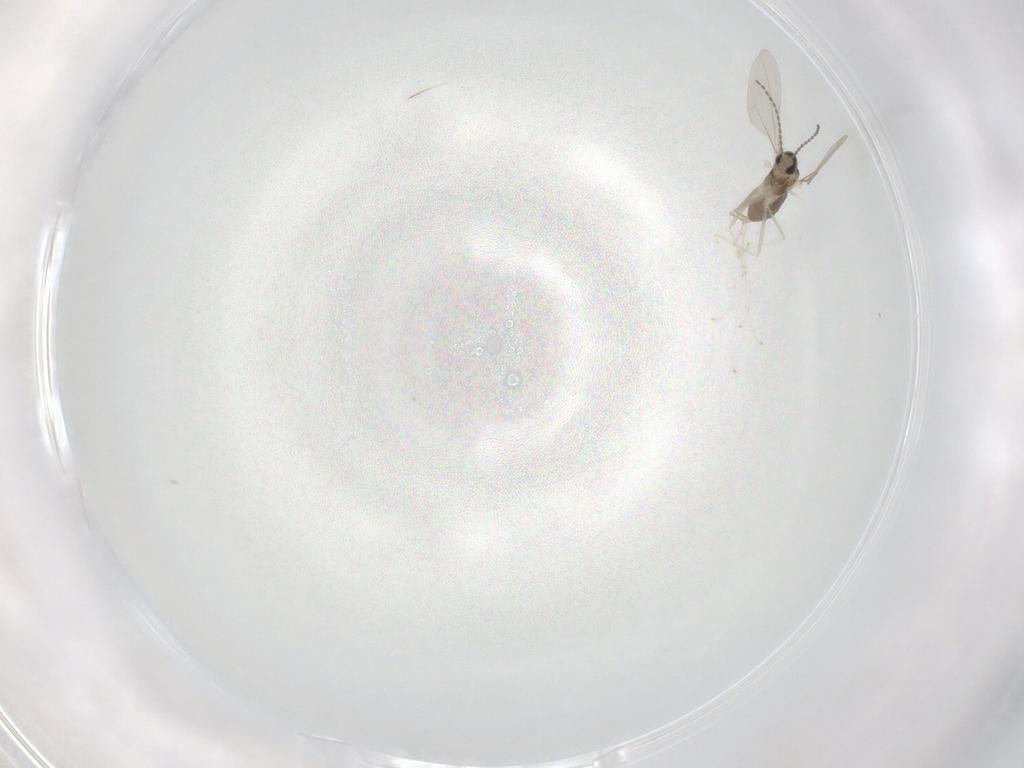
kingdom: Animalia
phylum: Arthropoda
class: Insecta
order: Diptera
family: Cecidomyiidae
